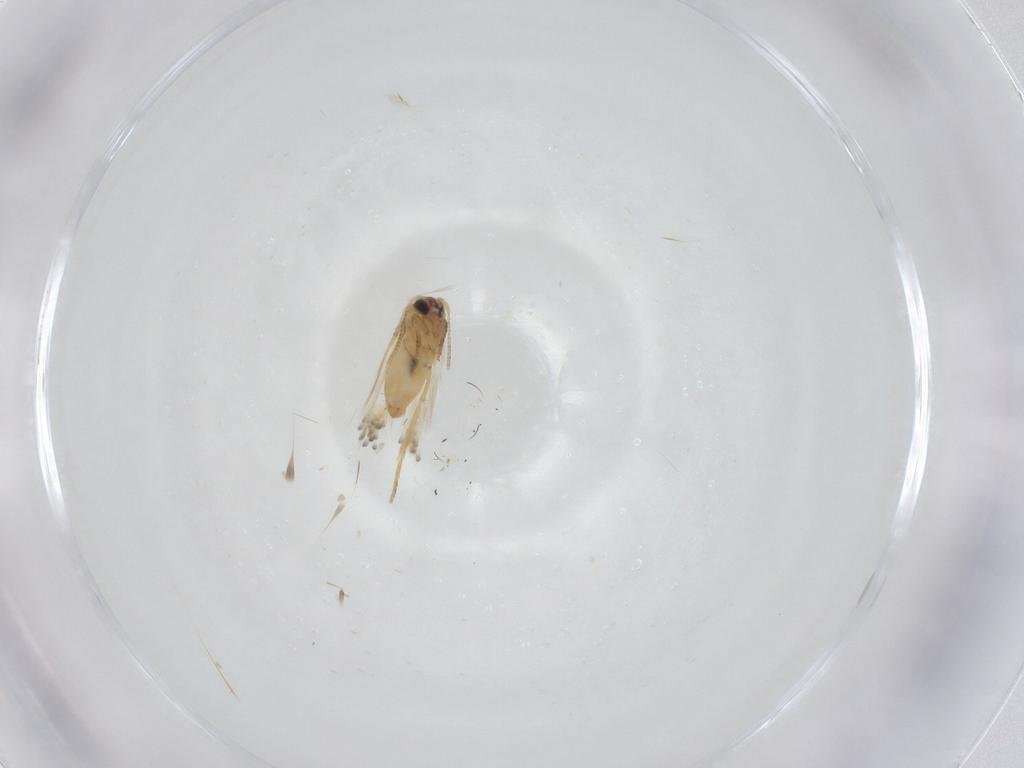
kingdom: Animalia
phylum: Arthropoda
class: Insecta
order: Lepidoptera
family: Crambidae
